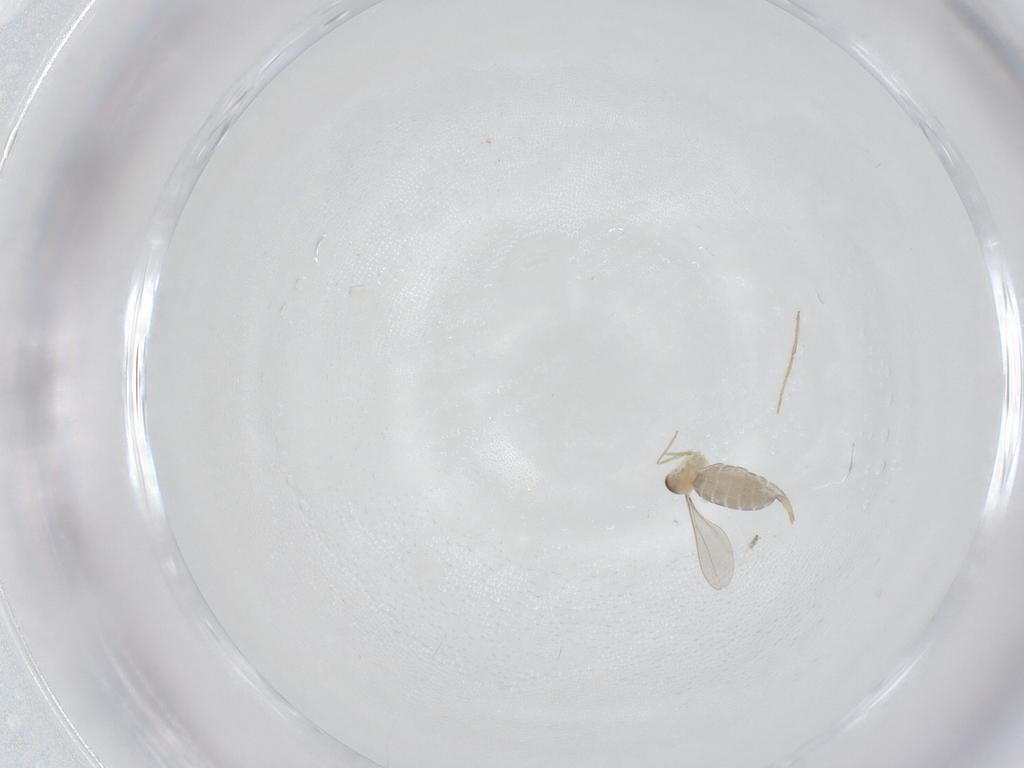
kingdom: Animalia
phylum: Arthropoda
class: Insecta
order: Diptera
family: Chironomidae
